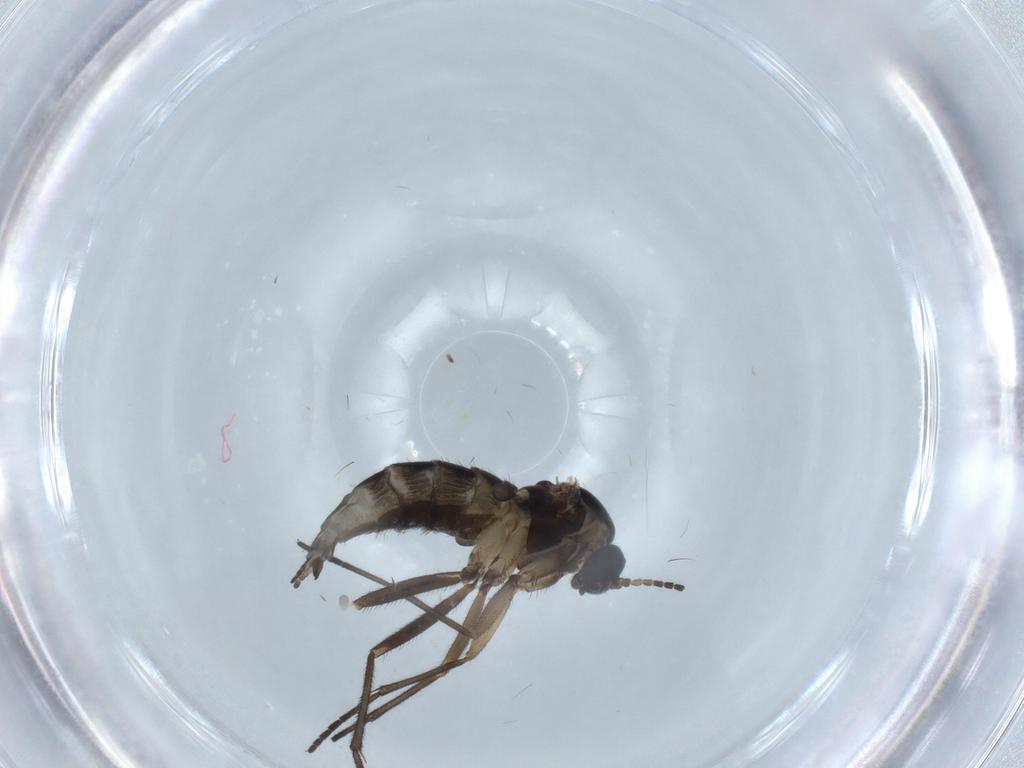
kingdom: Animalia
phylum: Arthropoda
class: Insecta
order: Diptera
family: Sciaridae
